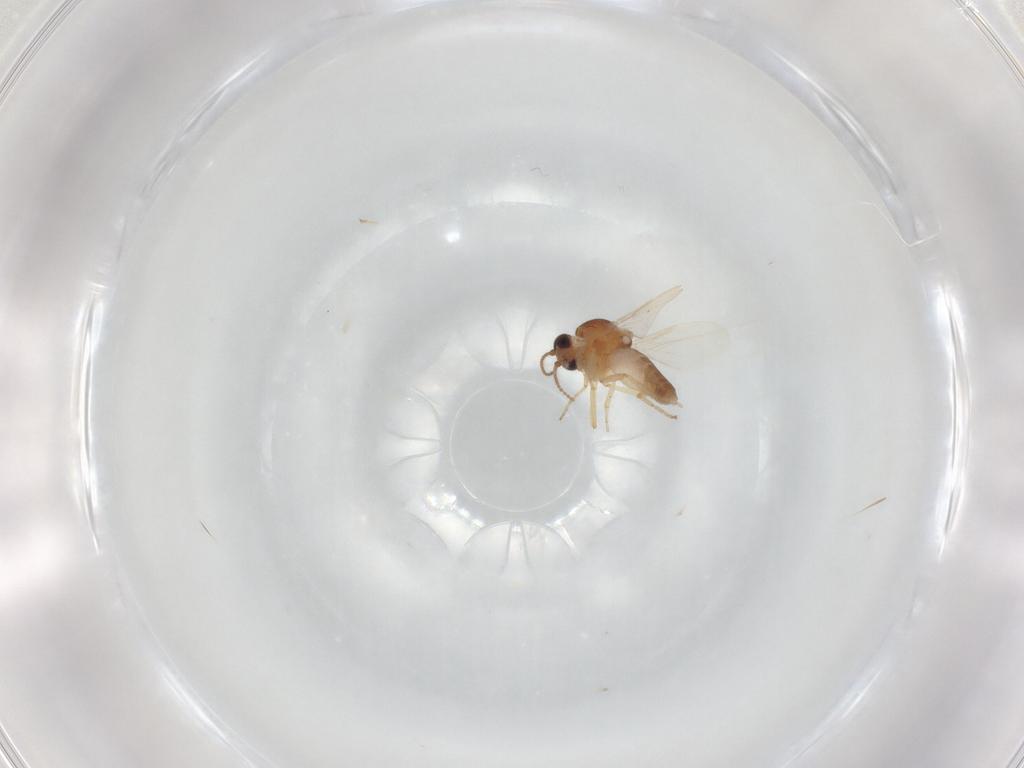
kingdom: Animalia
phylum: Arthropoda
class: Insecta
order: Diptera
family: Ceratopogonidae
